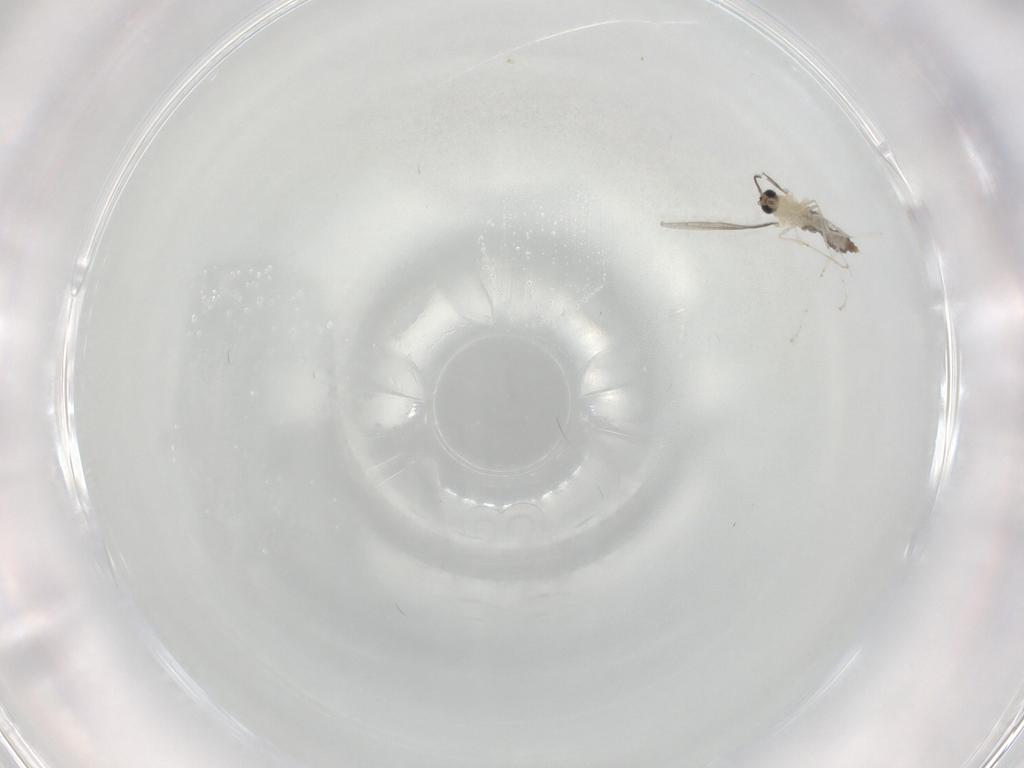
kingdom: Animalia
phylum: Arthropoda
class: Insecta
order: Diptera
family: Cecidomyiidae
